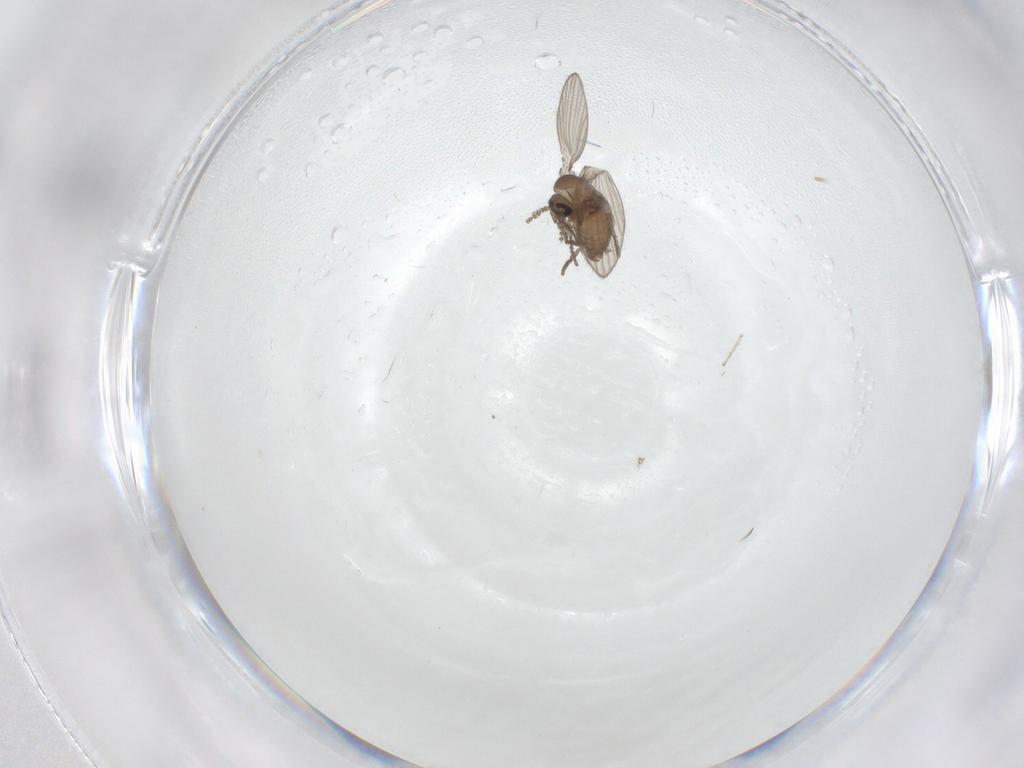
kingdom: Animalia
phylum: Arthropoda
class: Insecta
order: Diptera
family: Psychodidae
